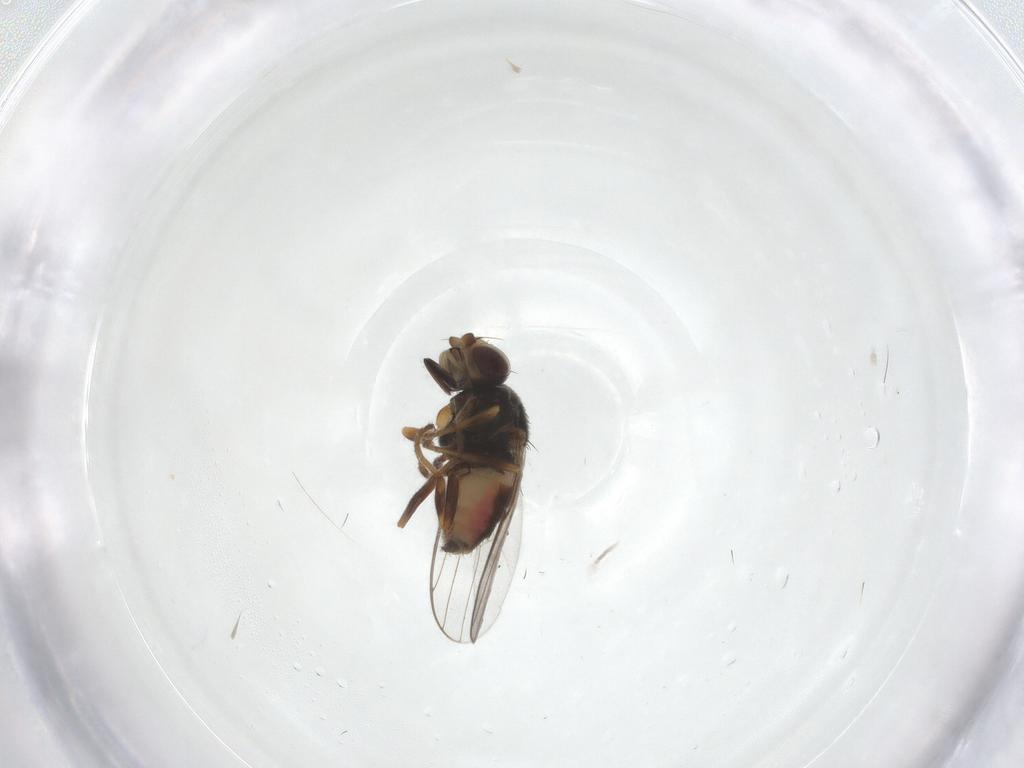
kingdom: Animalia
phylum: Arthropoda
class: Insecta
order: Diptera
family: Chloropidae
